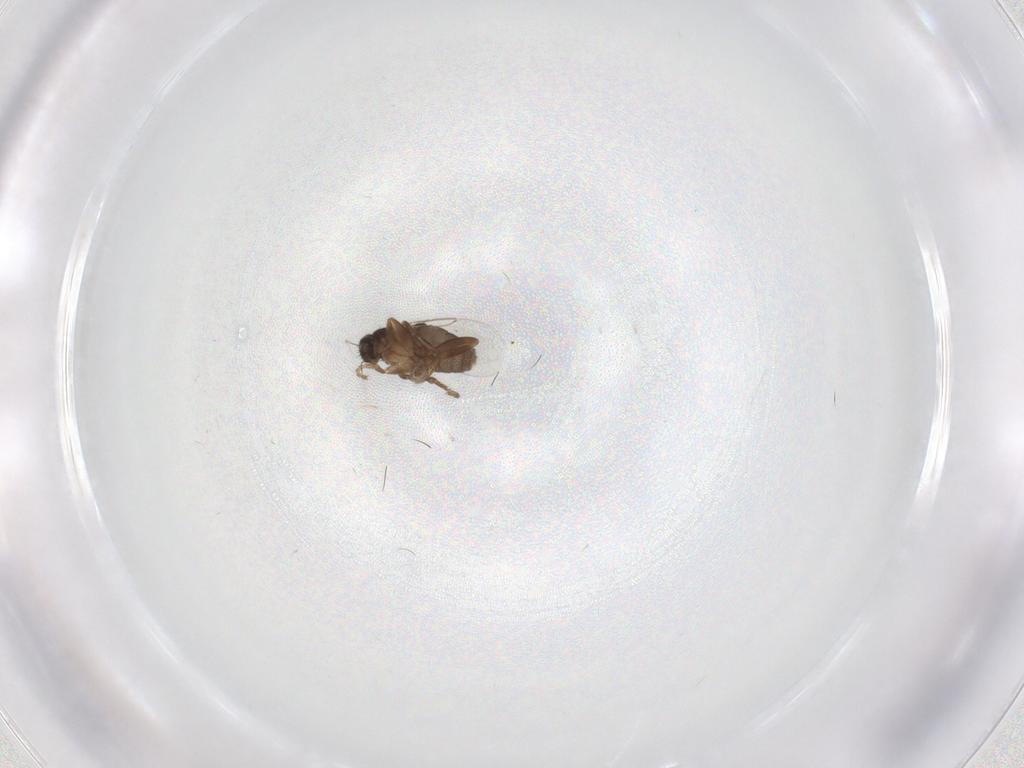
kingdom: Animalia
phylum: Arthropoda
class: Insecta
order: Diptera
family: Phoridae
